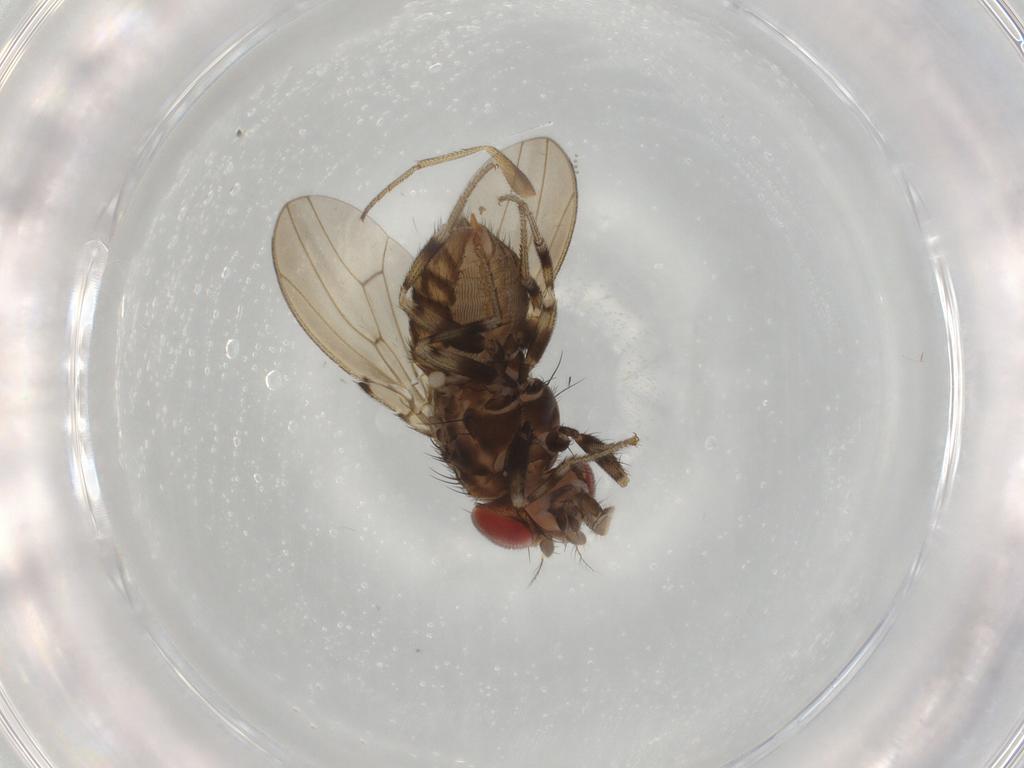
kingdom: Animalia
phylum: Arthropoda
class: Insecta
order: Diptera
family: Drosophilidae
